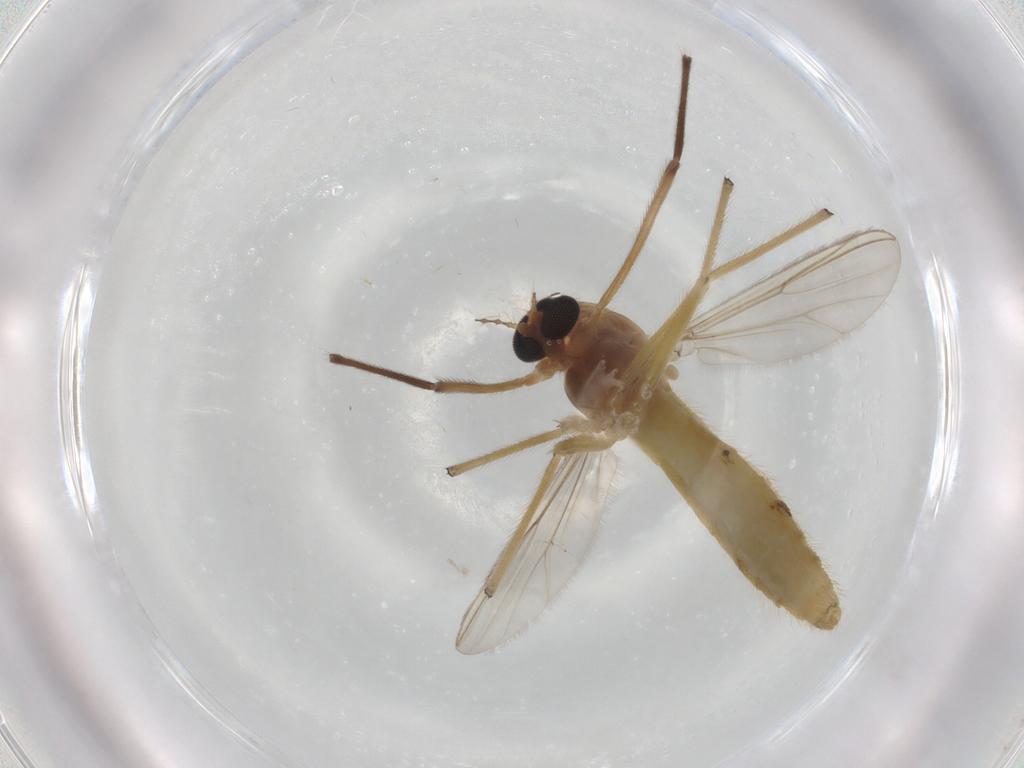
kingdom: Animalia
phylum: Arthropoda
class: Insecta
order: Diptera
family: Chironomidae
